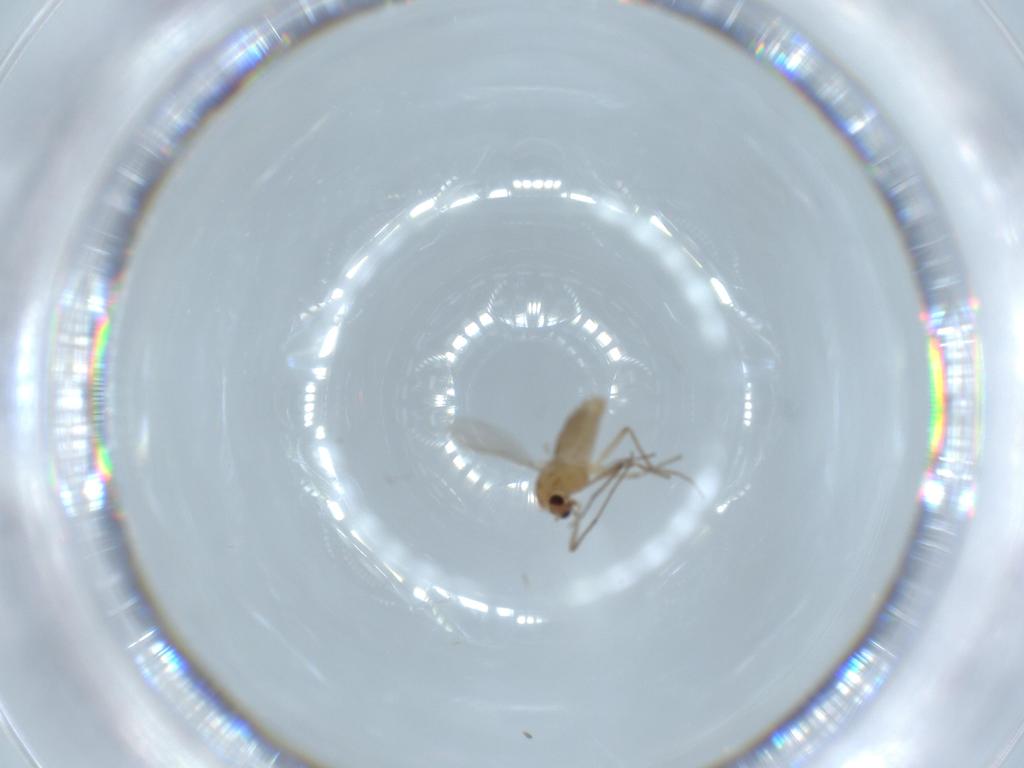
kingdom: Animalia
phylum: Arthropoda
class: Insecta
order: Diptera
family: Chironomidae
